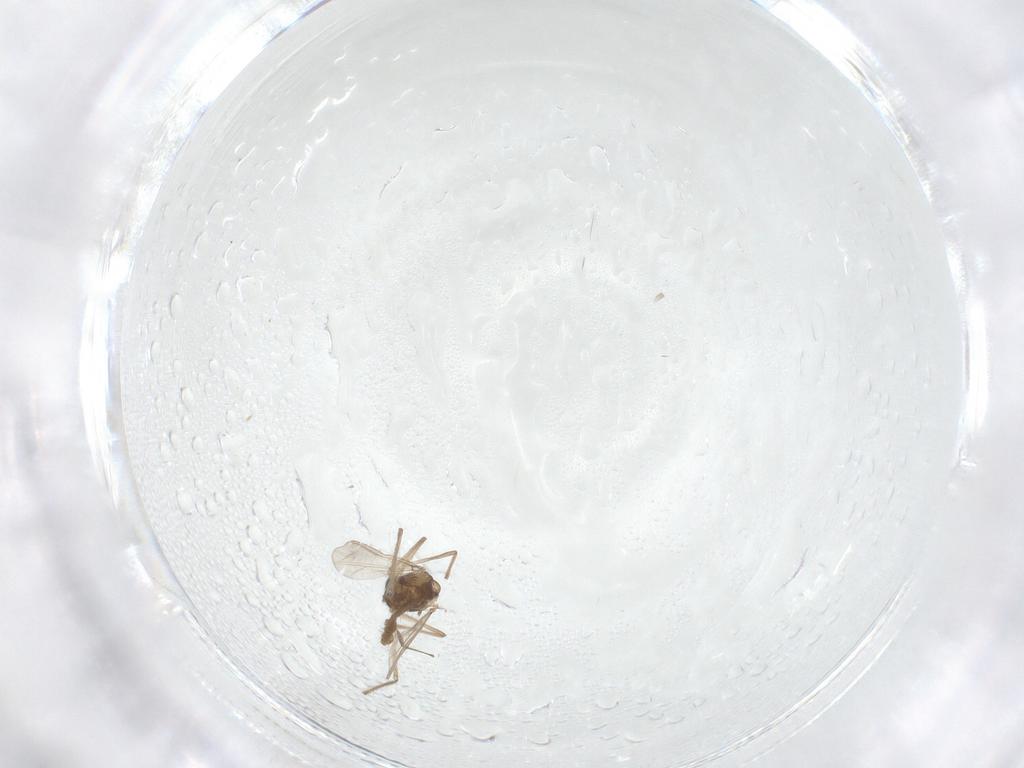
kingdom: Animalia
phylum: Arthropoda
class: Insecta
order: Diptera
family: Chironomidae
